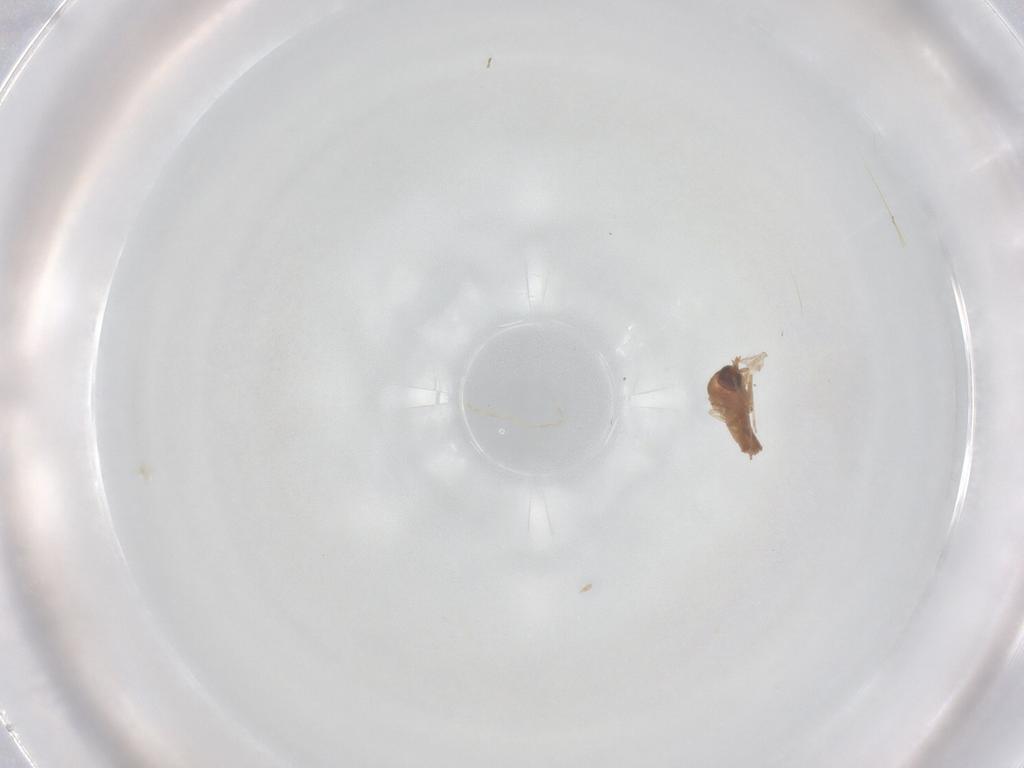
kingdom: Animalia
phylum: Arthropoda
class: Insecta
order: Diptera
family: Ceratopogonidae
